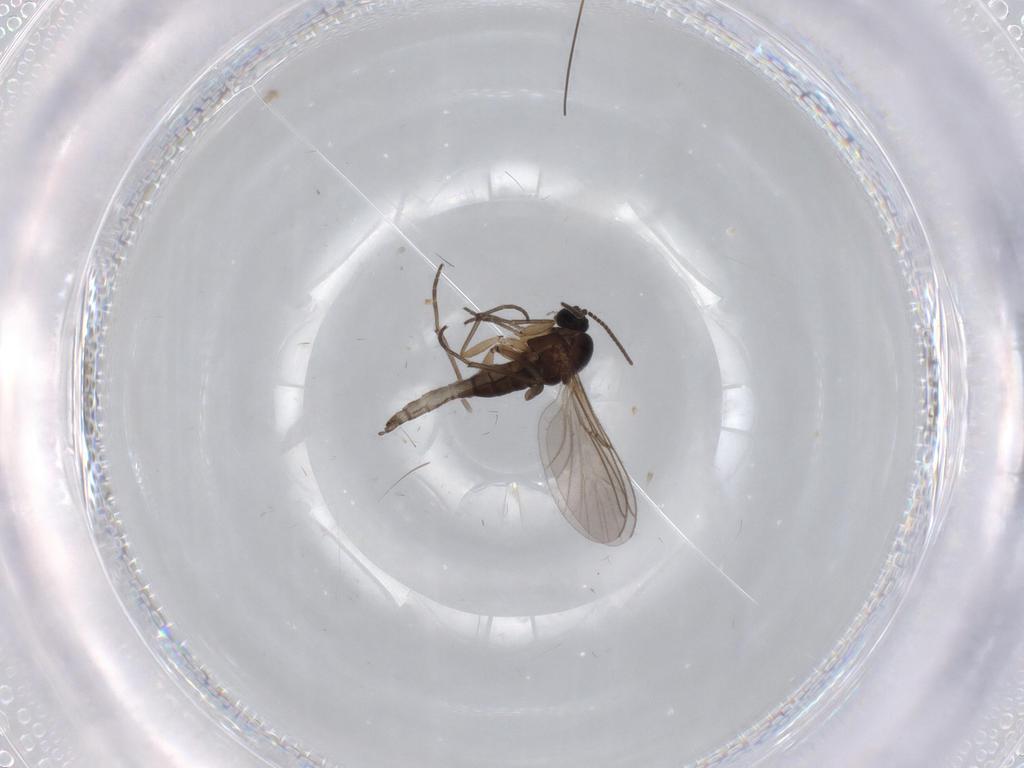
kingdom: Animalia
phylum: Arthropoda
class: Insecta
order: Diptera
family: Sciaridae
